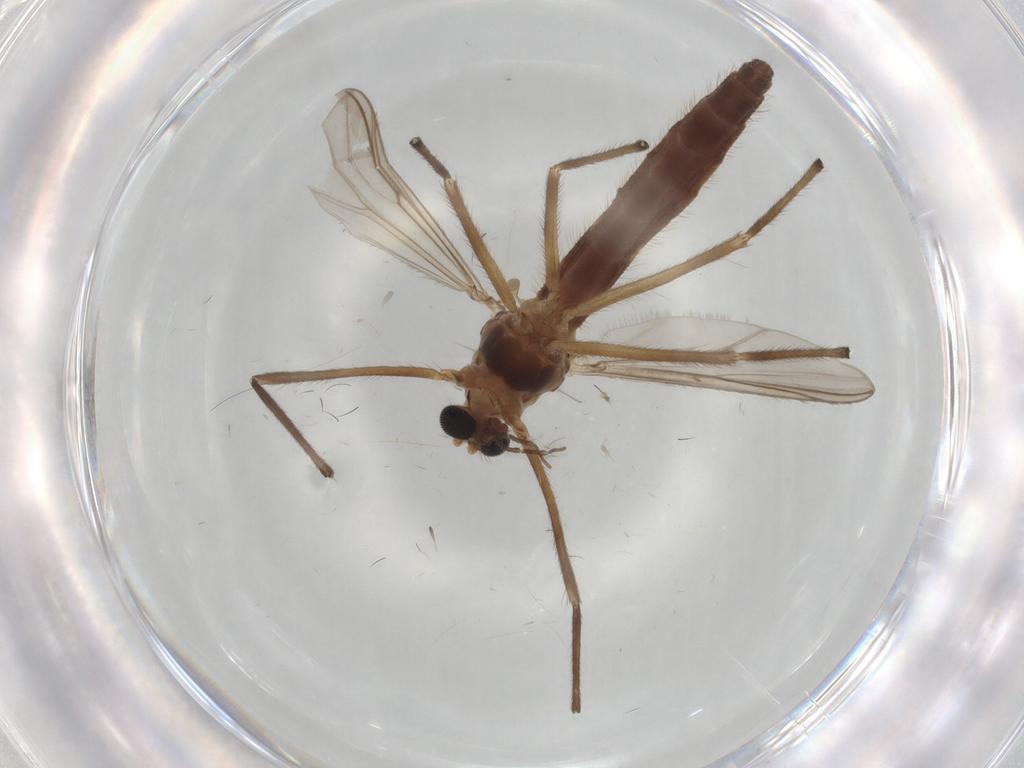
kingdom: Animalia
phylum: Arthropoda
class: Insecta
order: Diptera
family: Chironomidae
